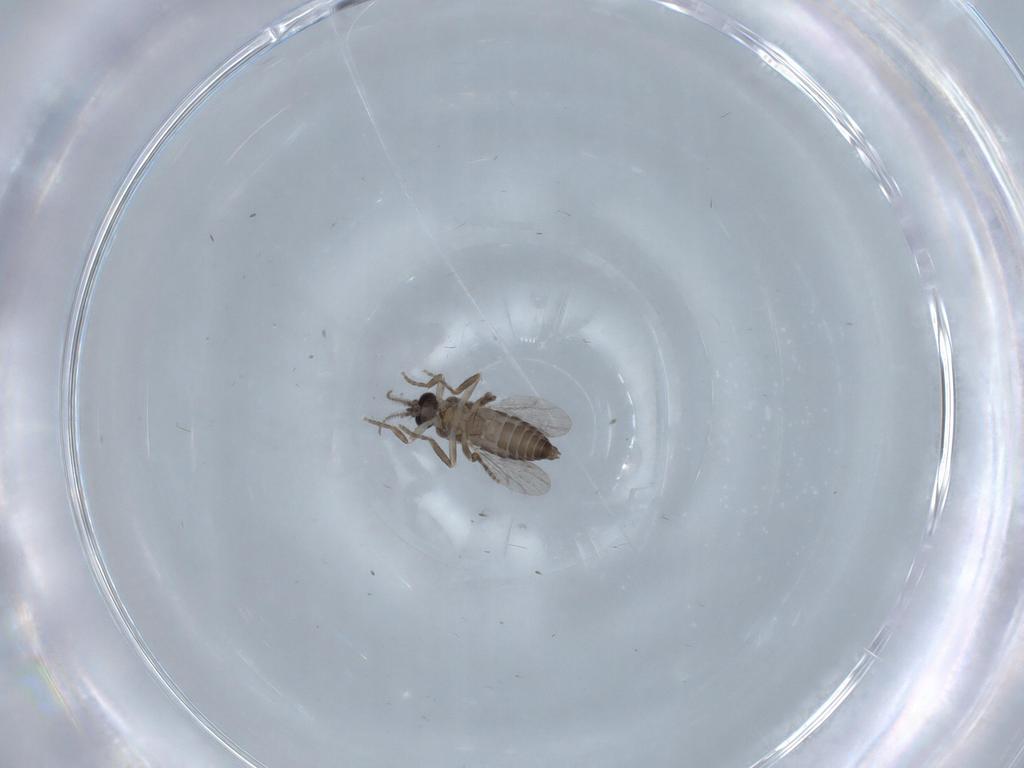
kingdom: Animalia
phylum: Arthropoda
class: Insecta
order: Diptera
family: Ceratopogonidae
